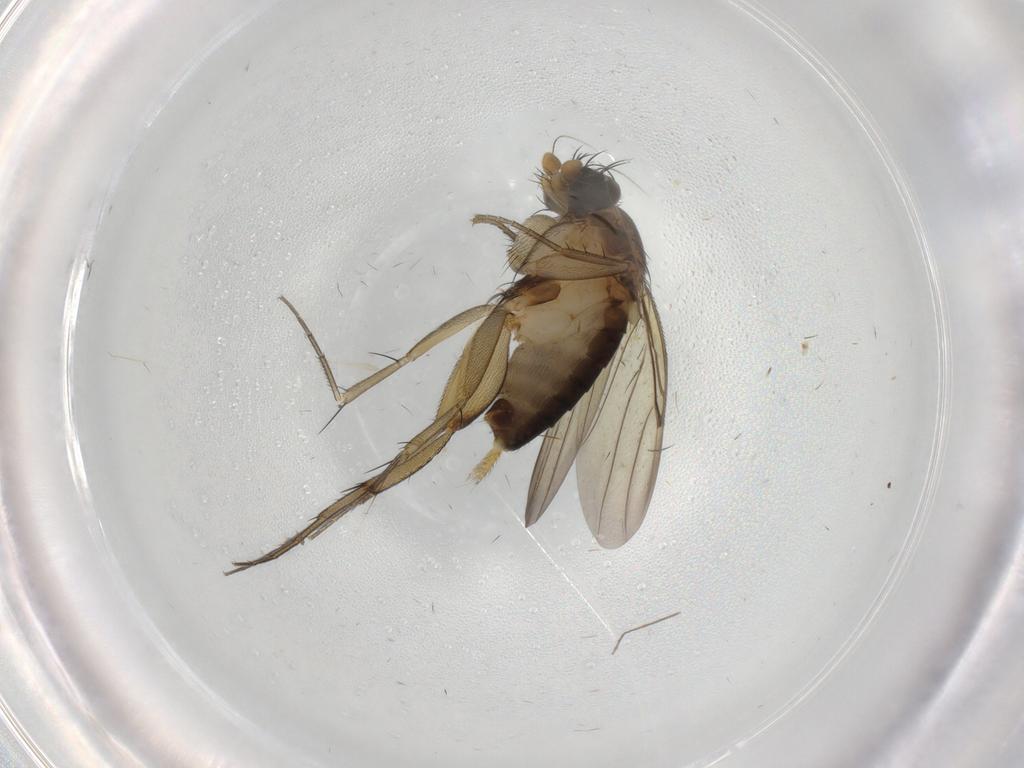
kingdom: Animalia
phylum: Arthropoda
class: Insecta
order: Diptera
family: Phoridae
